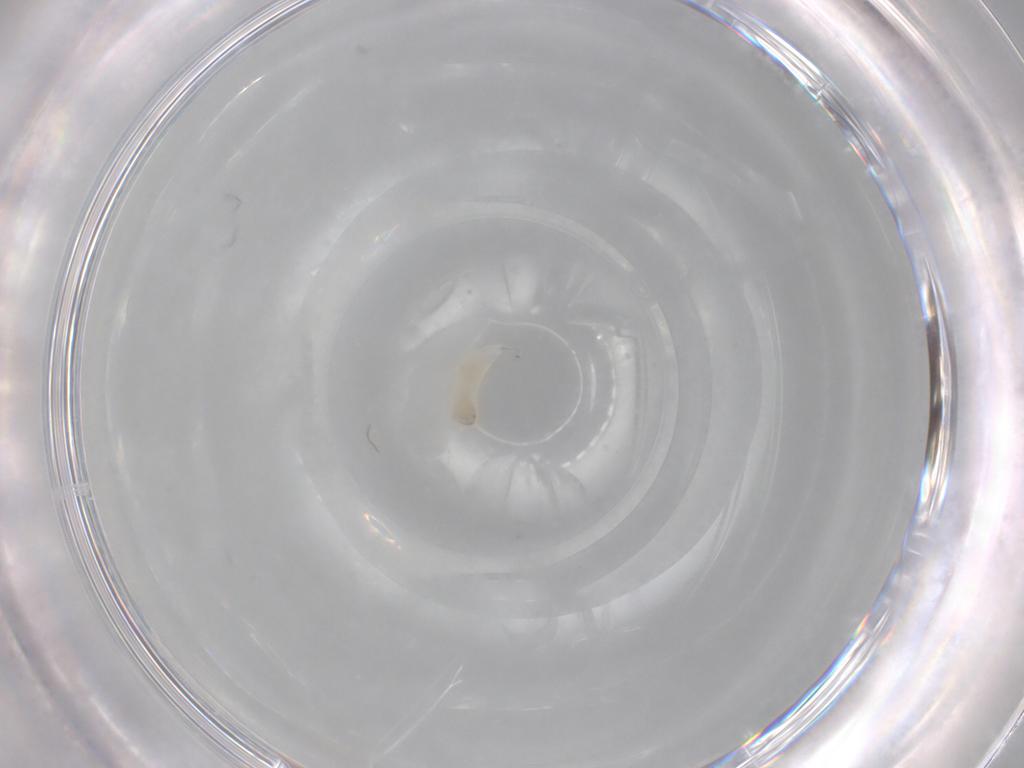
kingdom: Animalia
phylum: Arthropoda
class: Insecta
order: Hymenoptera
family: Ichneumonidae
